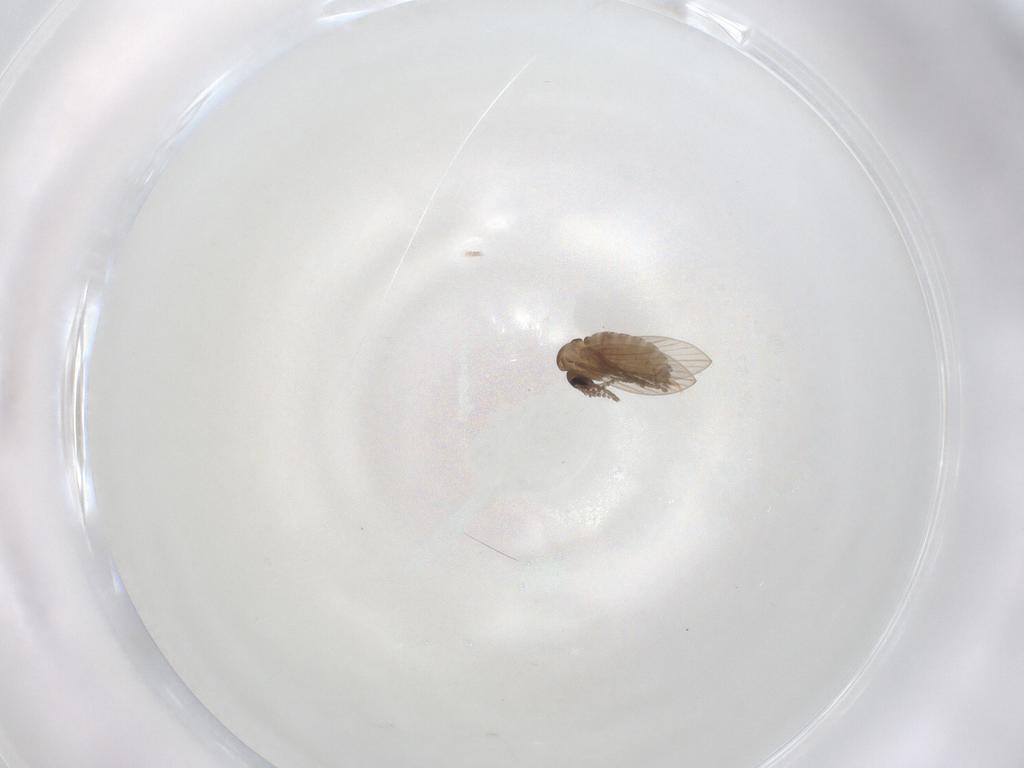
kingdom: Animalia
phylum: Arthropoda
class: Insecta
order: Diptera
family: Psychodidae
